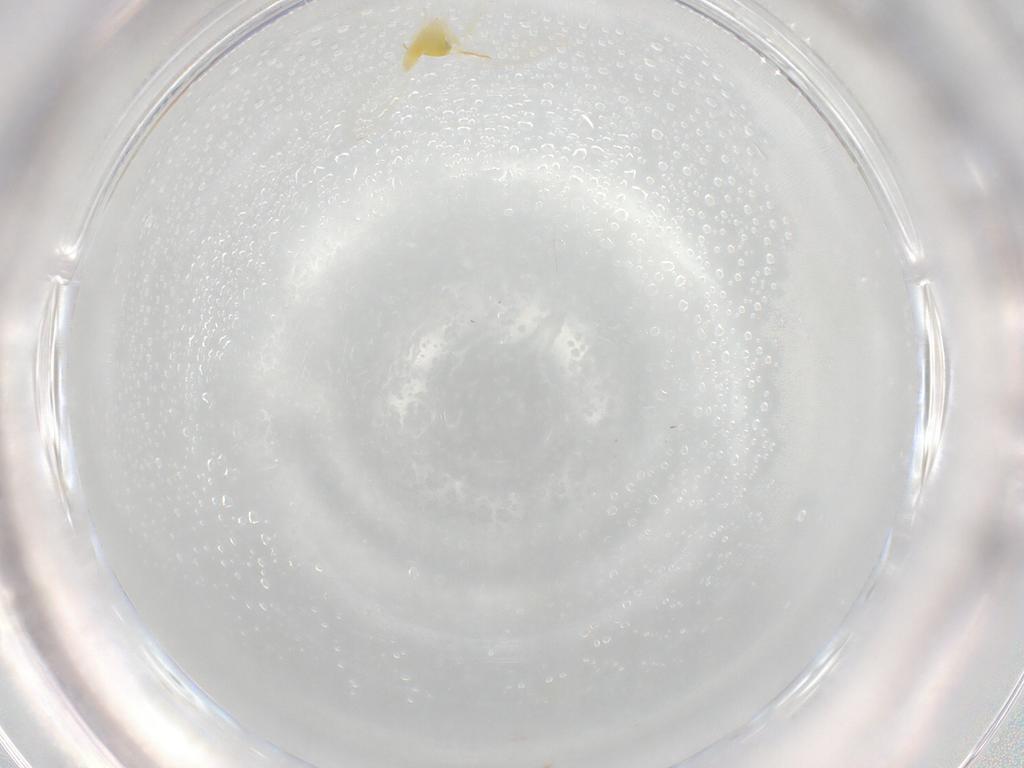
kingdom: Animalia
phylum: Arthropoda
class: Insecta
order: Hemiptera
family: Aleyrodidae
